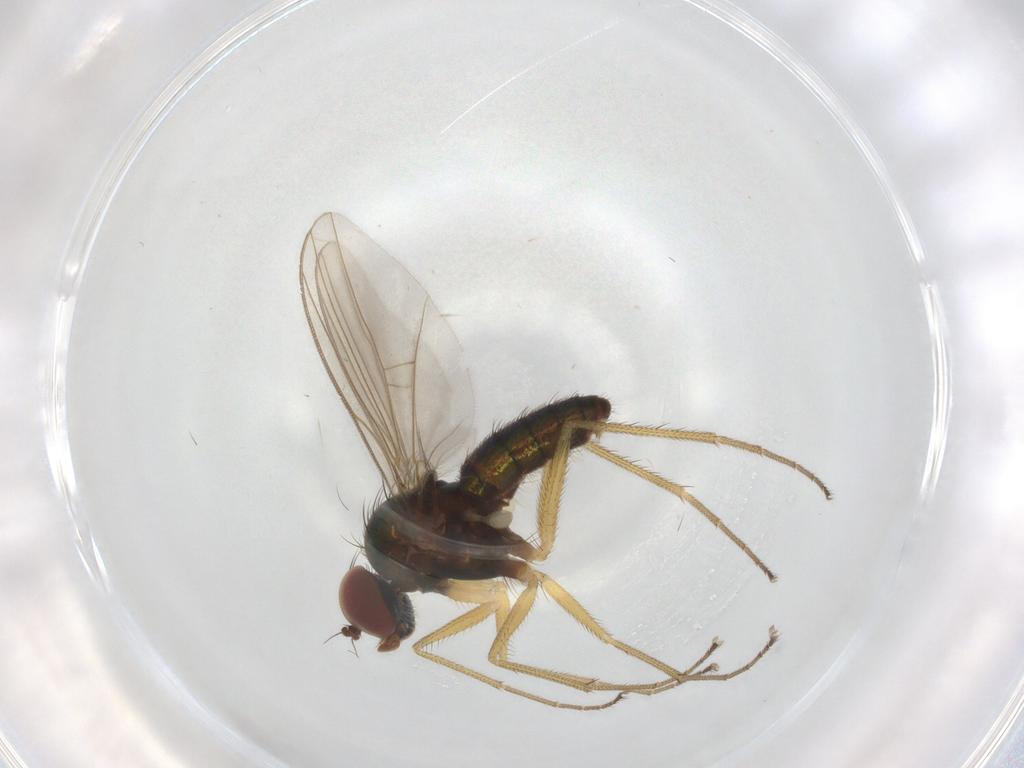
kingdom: Animalia
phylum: Arthropoda
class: Insecta
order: Diptera
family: Dolichopodidae
